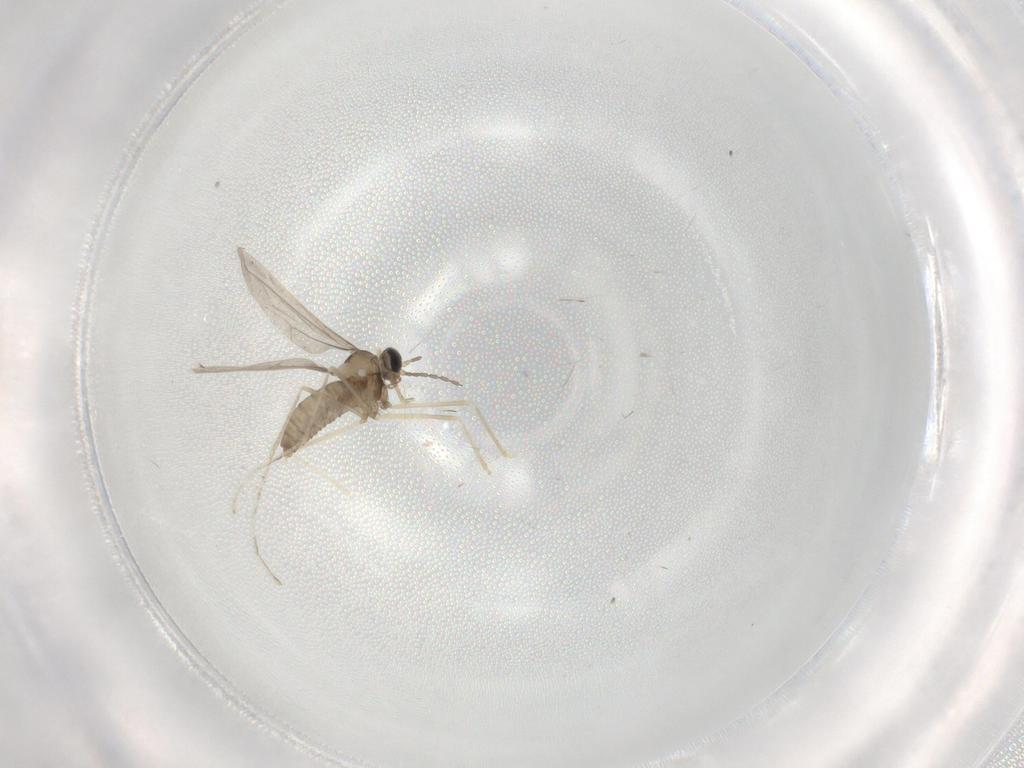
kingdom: Animalia
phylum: Arthropoda
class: Insecta
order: Diptera
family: Cecidomyiidae
